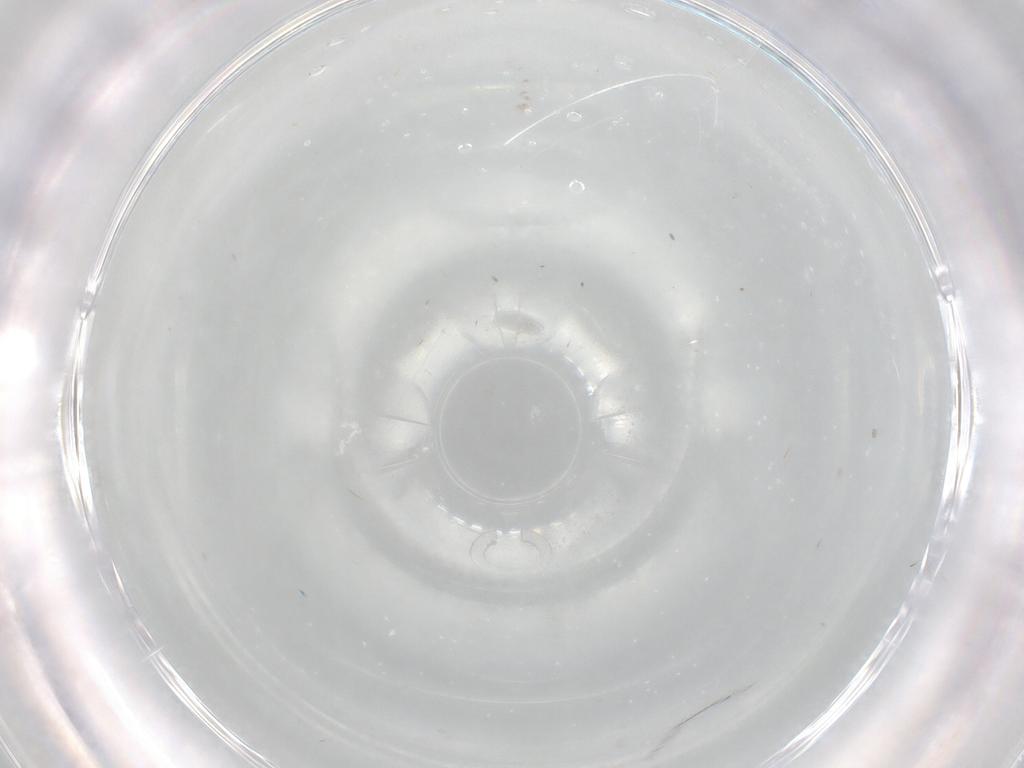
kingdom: Animalia
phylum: Arthropoda
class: Insecta
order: Diptera
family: Phoridae
